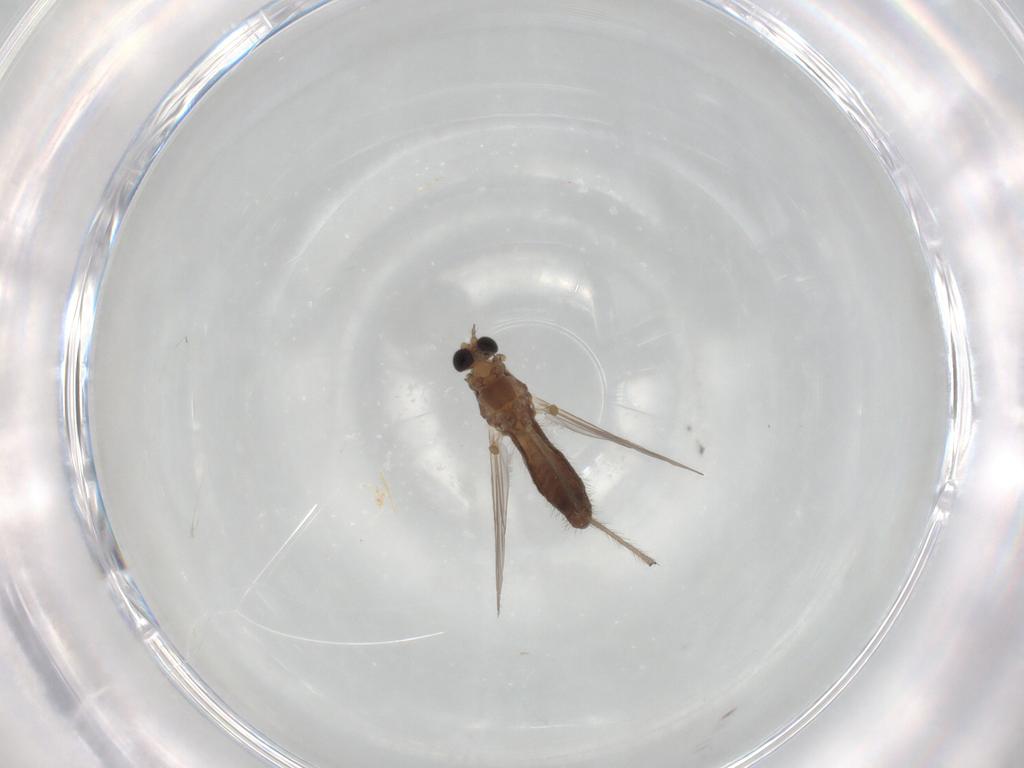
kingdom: Animalia
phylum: Arthropoda
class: Insecta
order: Diptera
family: Chironomidae
